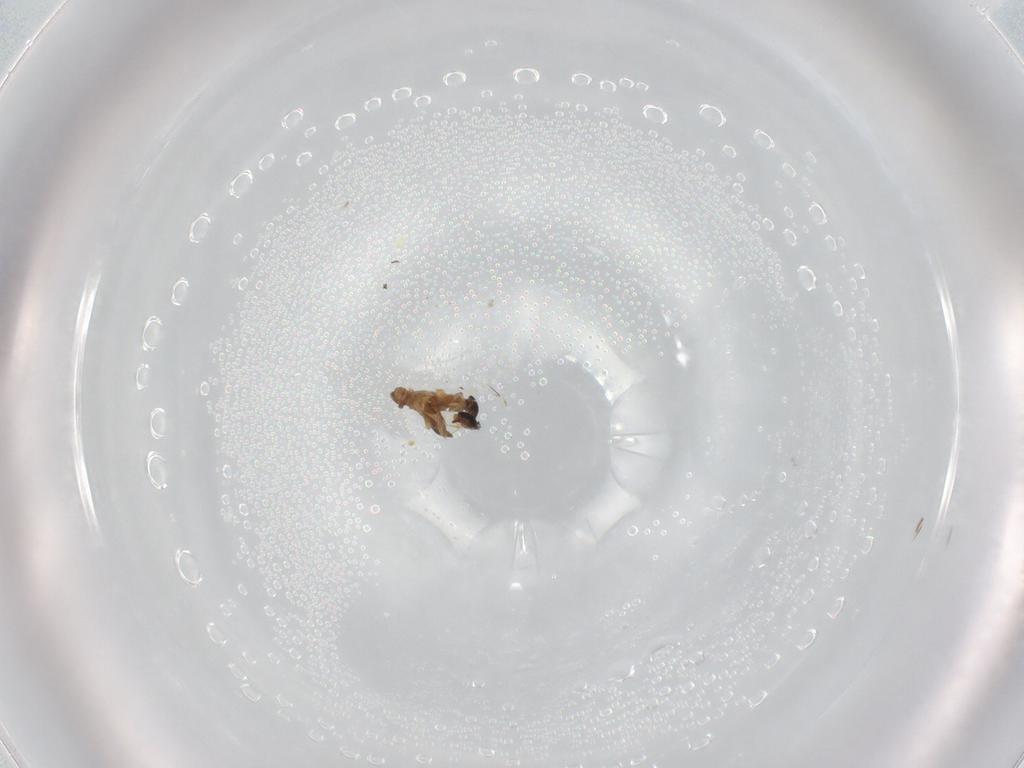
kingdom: Animalia
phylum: Arthropoda
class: Insecta
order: Diptera
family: Cecidomyiidae
